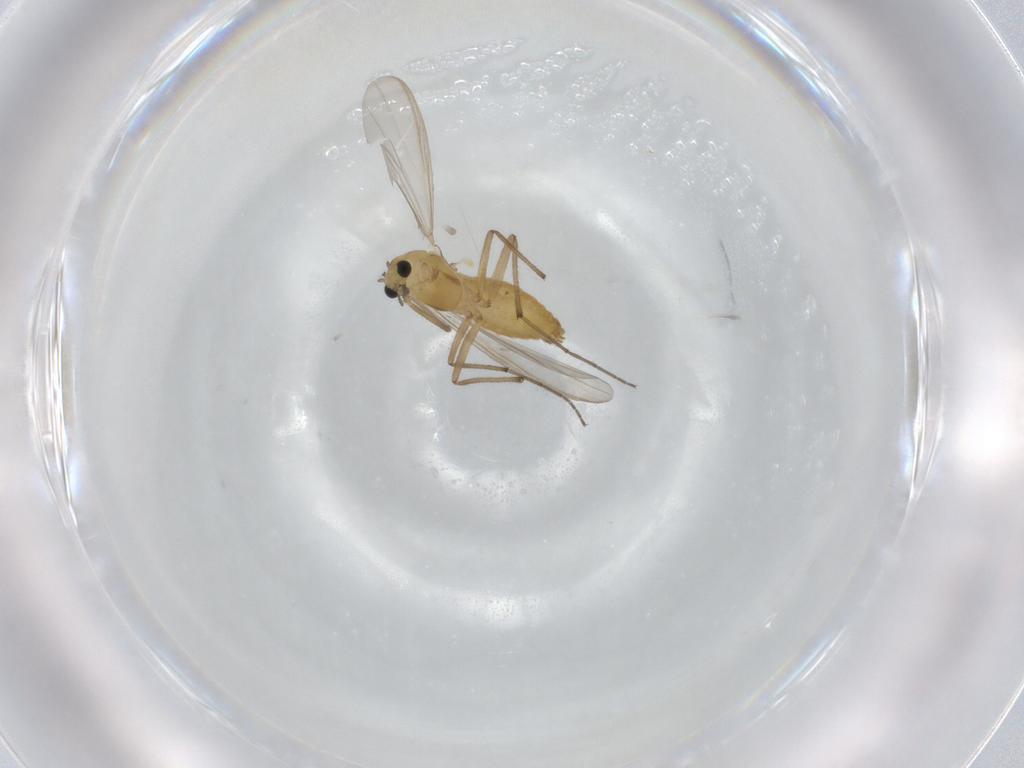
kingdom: Animalia
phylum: Arthropoda
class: Insecta
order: Diptera
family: Chironomidae
